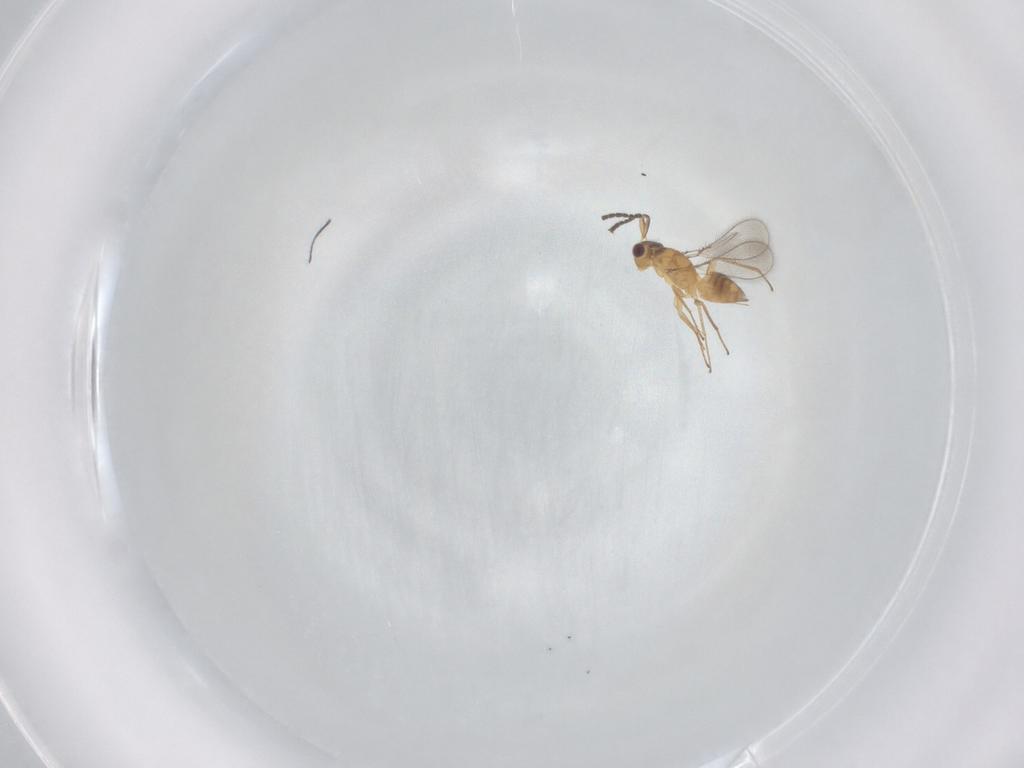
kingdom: Animalia
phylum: Arthropoda
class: Insecta
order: Hymenoptera
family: Mymaridae
